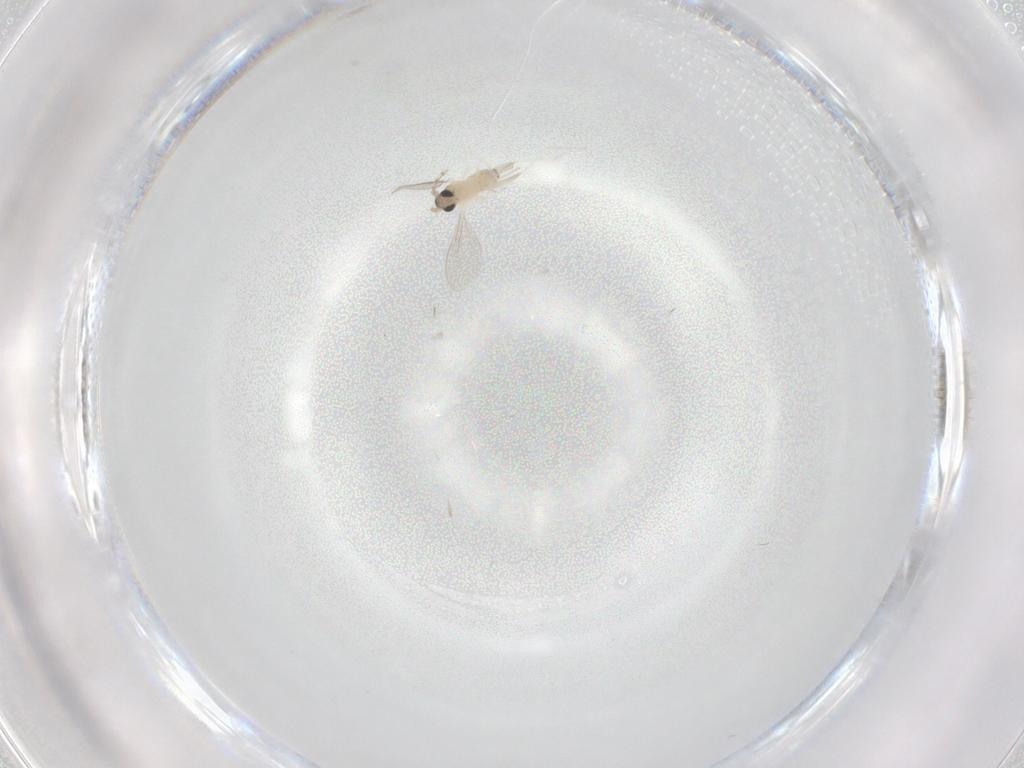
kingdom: Animalia
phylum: Arthropoda
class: Insecta
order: Diptera
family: Cecidomyiidae
